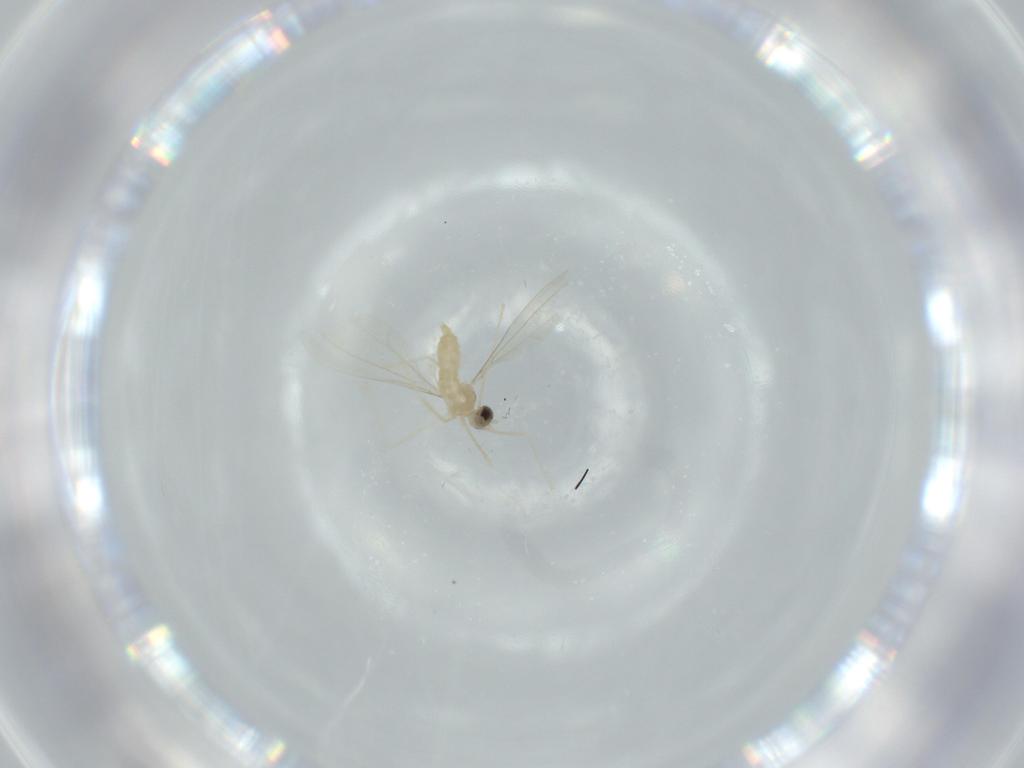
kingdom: Animalia
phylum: Arthropoda
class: Insecta
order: Diptera
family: Cecidomyiidae
